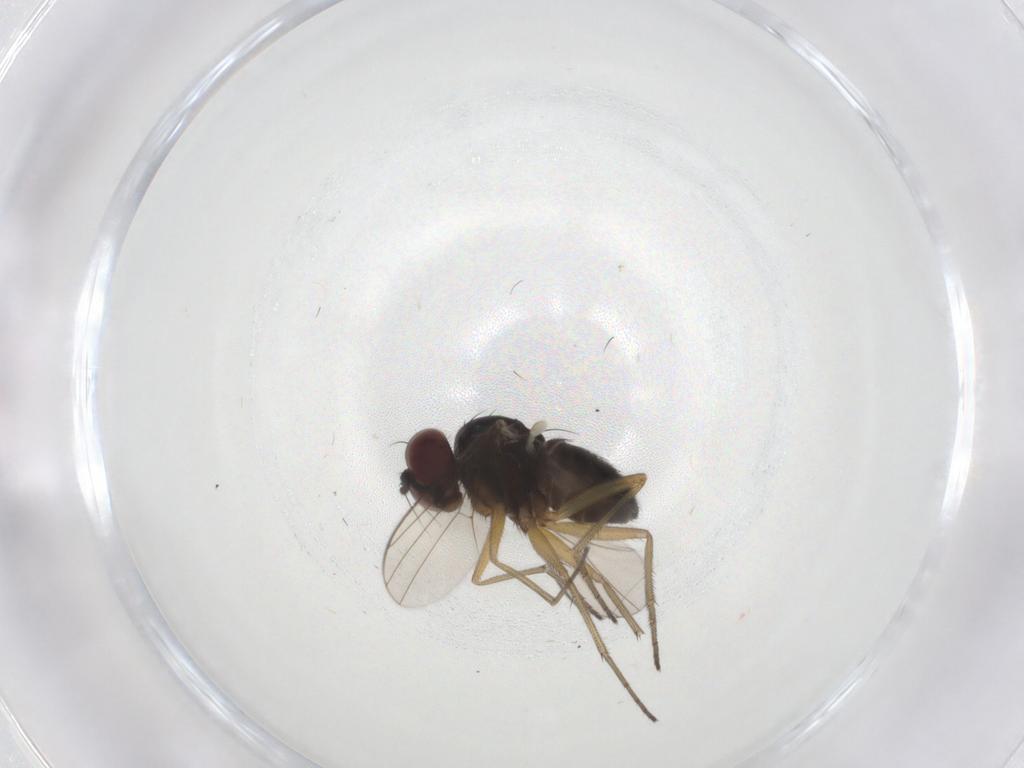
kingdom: Animalia
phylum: Arthropoda
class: Insecta
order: Diptera
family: Dolichopodidae
